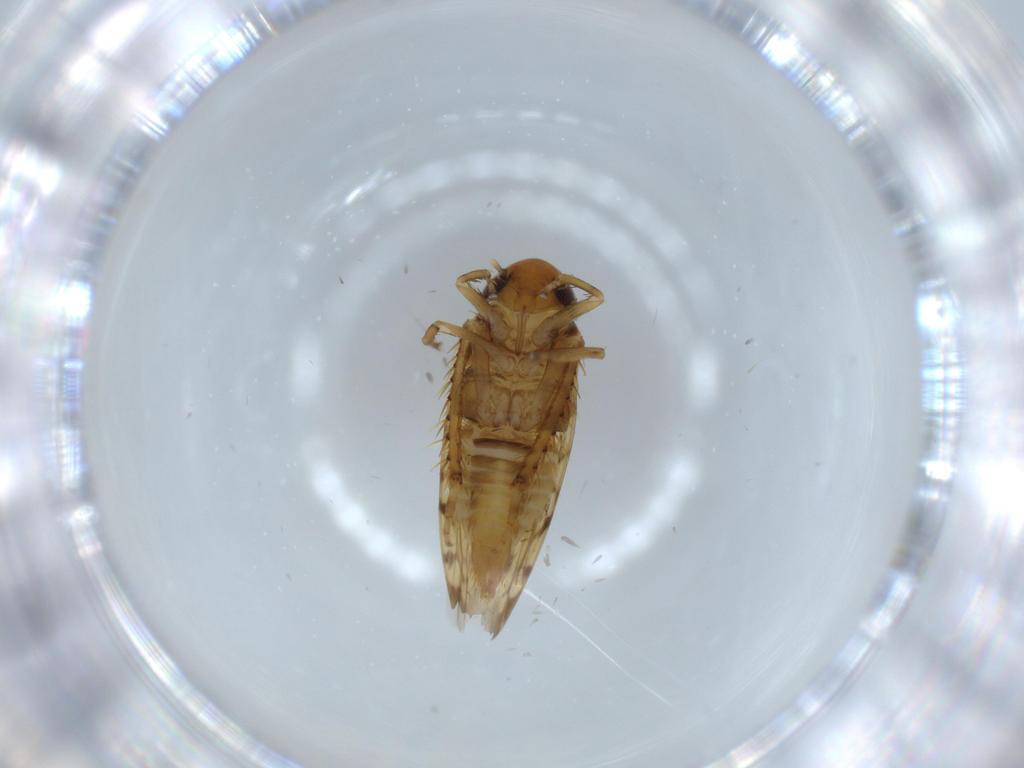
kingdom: Animalia
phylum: Arthropoda
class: Insecta
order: Hemiptera
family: Cicadellidae
